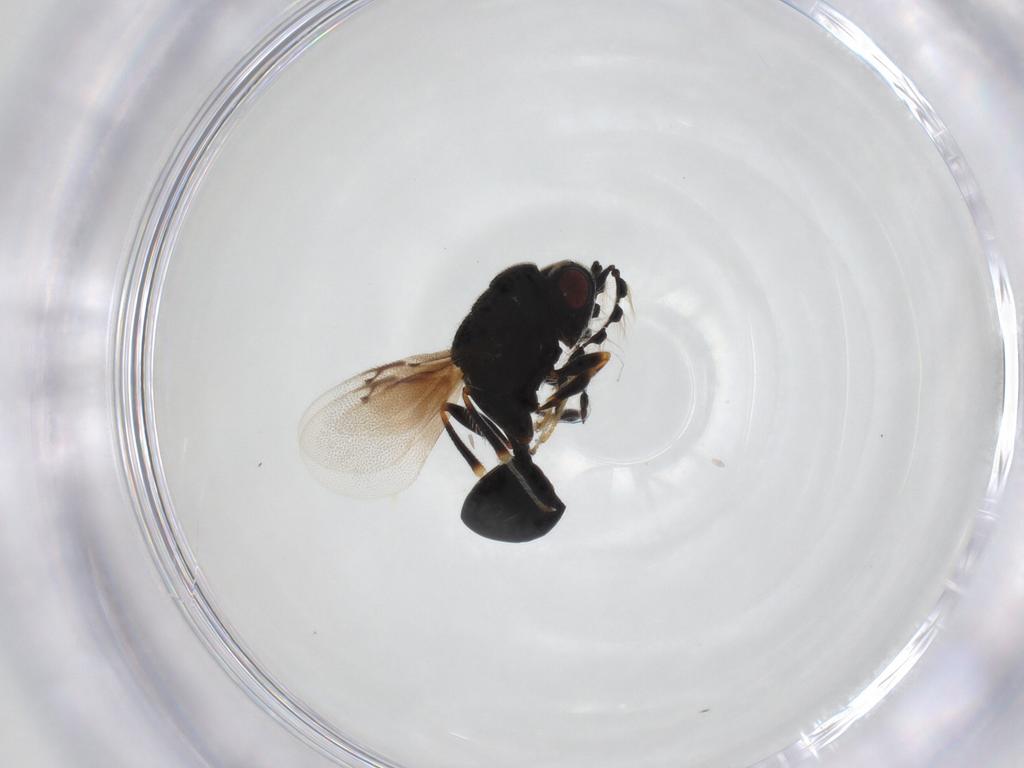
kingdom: Animalia
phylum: Arthropoda
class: Insecta
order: Hymenoptera
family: Eurytomidae
